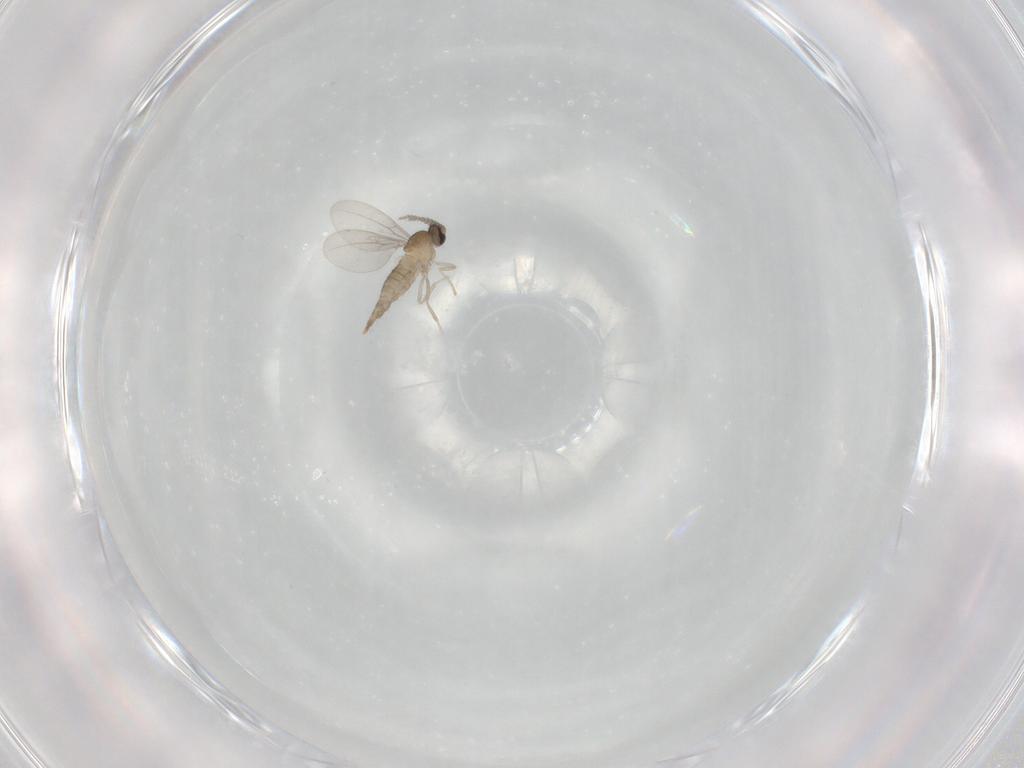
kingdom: Animalia
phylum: Arthropoda
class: Insecta
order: Diptera
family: Cecidomyiidae
